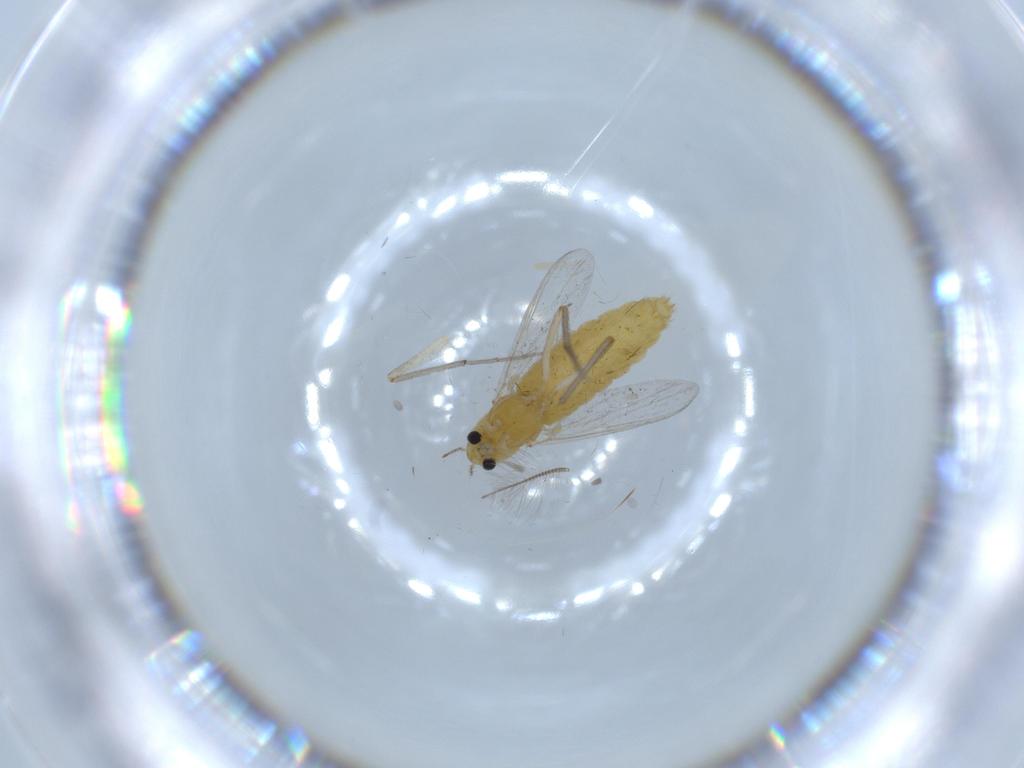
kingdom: Animalia
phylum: Arthropoda
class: Insecta
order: Diptera
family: Chironomidae
